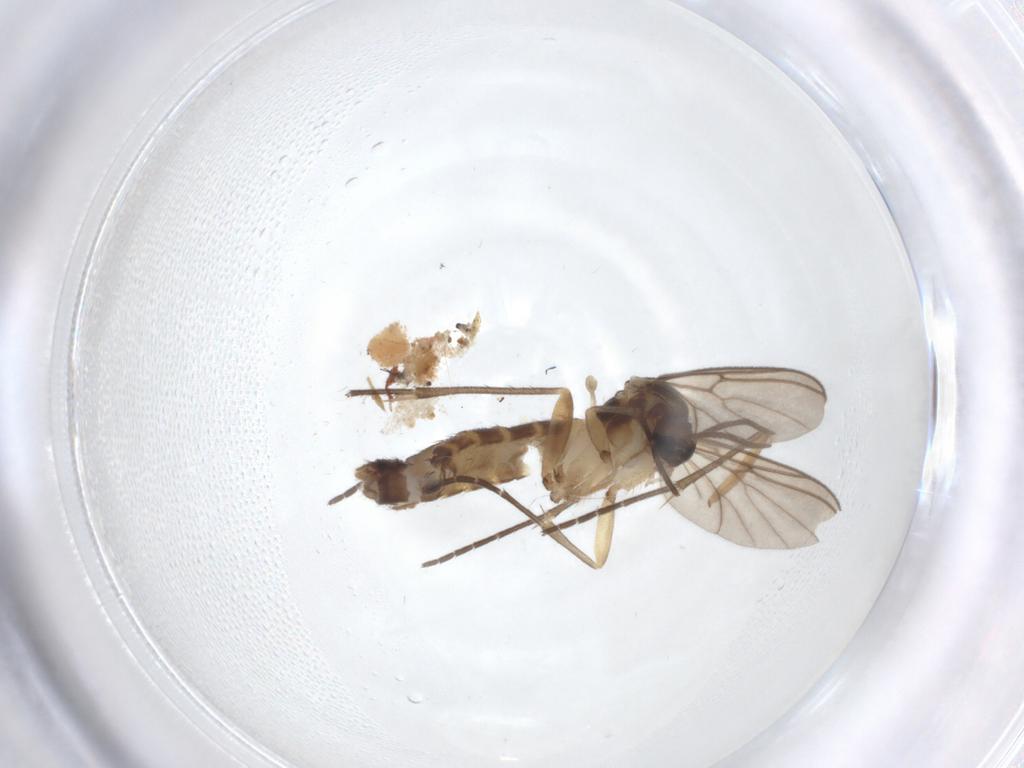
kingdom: Animalia
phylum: Arthropoda
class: Insecta
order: Diptera
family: Mycetophilidae
